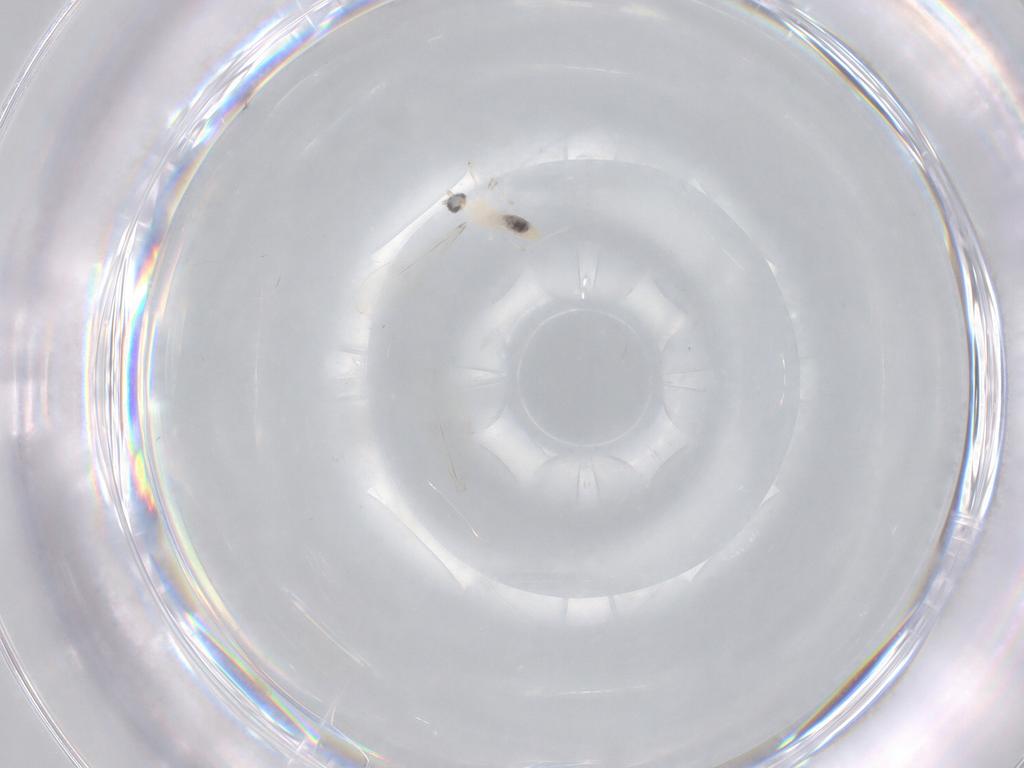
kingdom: Animalia
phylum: Arthropoda
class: Insecta
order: Diptera
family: Cecidomyiidae
